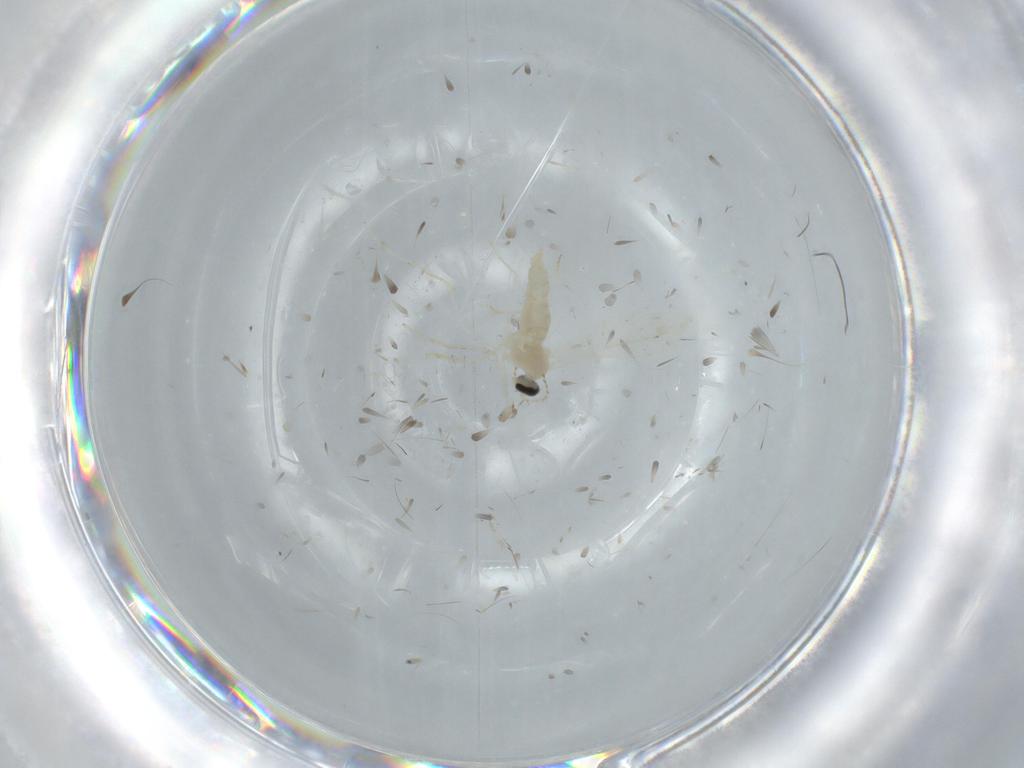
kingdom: Animalia
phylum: Arthropoda
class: Insecta
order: Diptera
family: Cecidomyiidae
